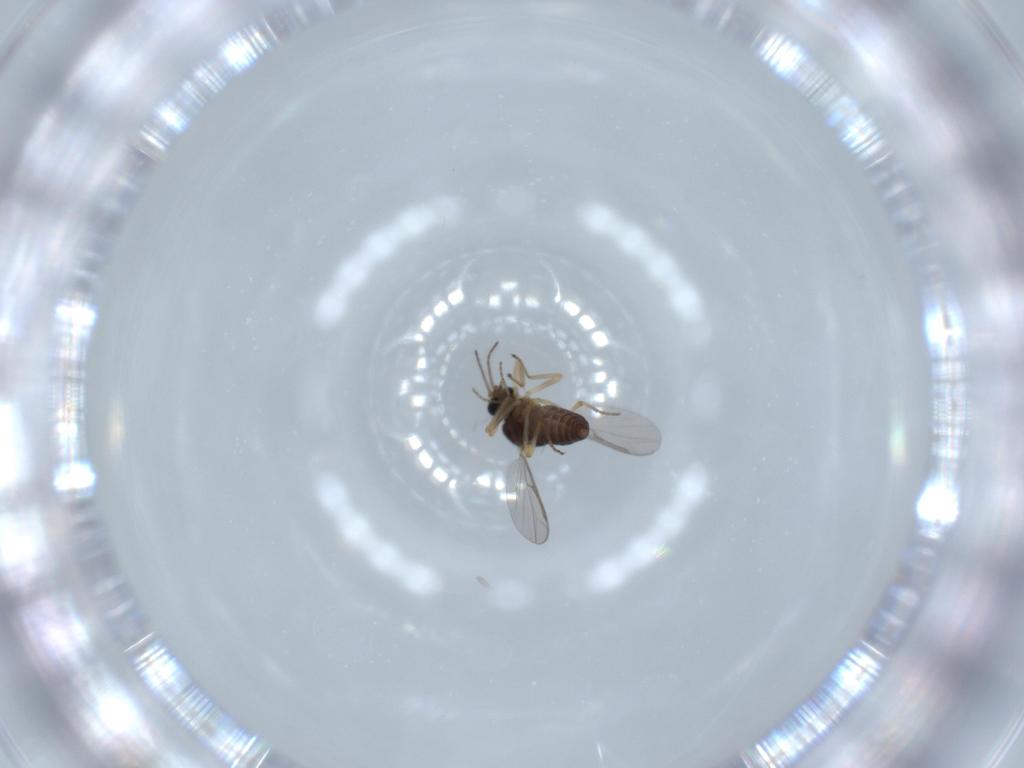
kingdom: Animalia
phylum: Arthropoda
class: Insecta
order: Diptera
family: Ceratopogonidae
